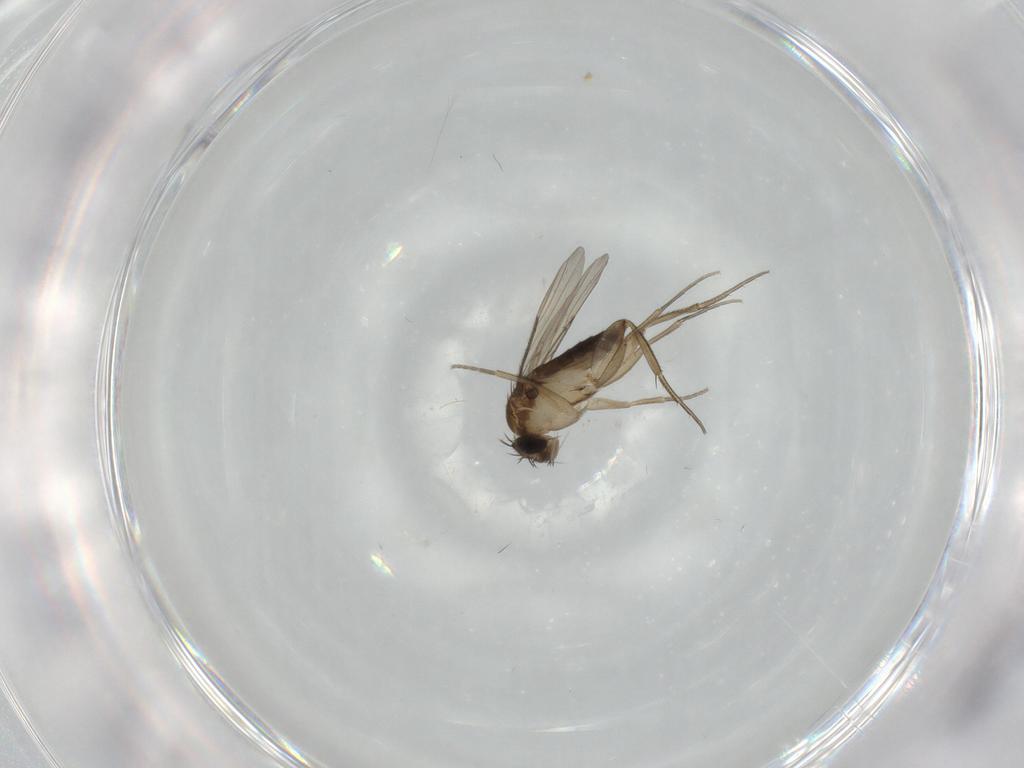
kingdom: Animalia
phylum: Arthropoda
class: Insecta
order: Diptera
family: Phoridae
